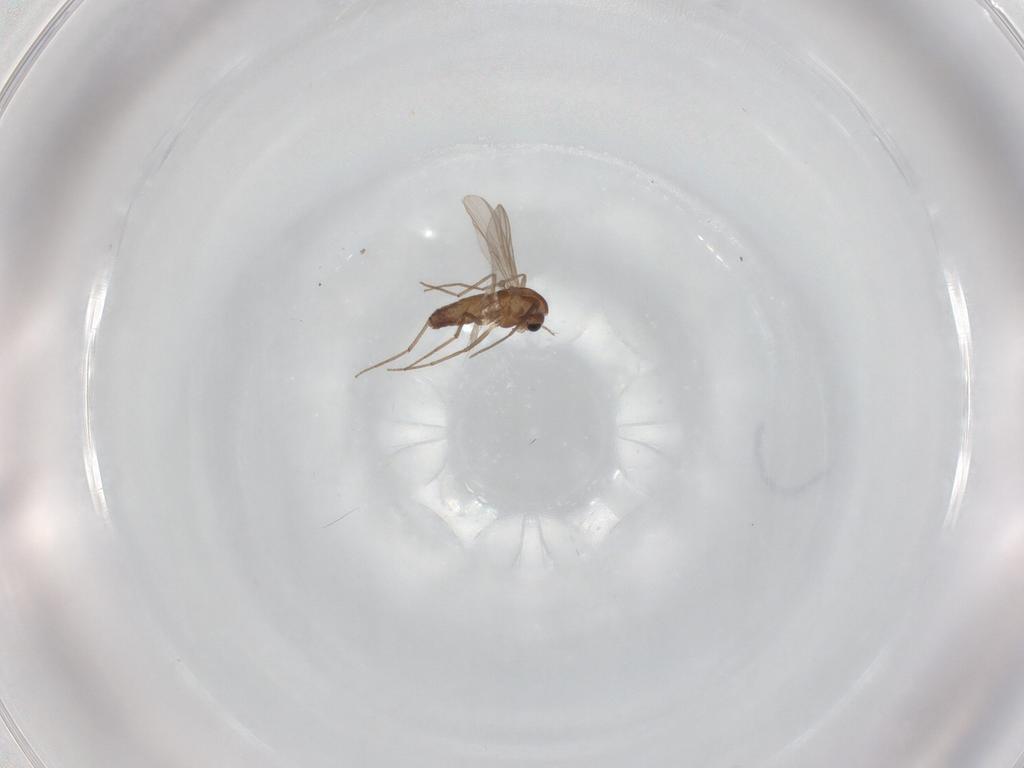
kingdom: Animalia
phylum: Arthropoda
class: Insecta
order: Diptera
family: Chironomidae
